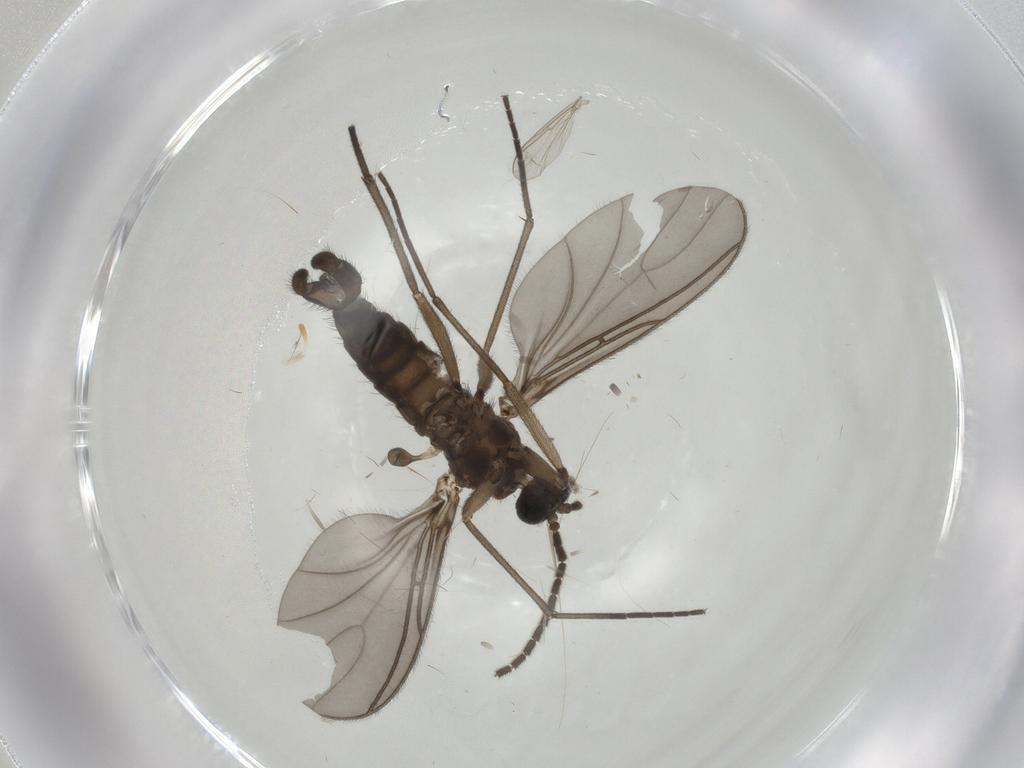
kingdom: Animalia
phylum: Arthropoda
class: Insecta
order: Diptera
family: Sciaridae
